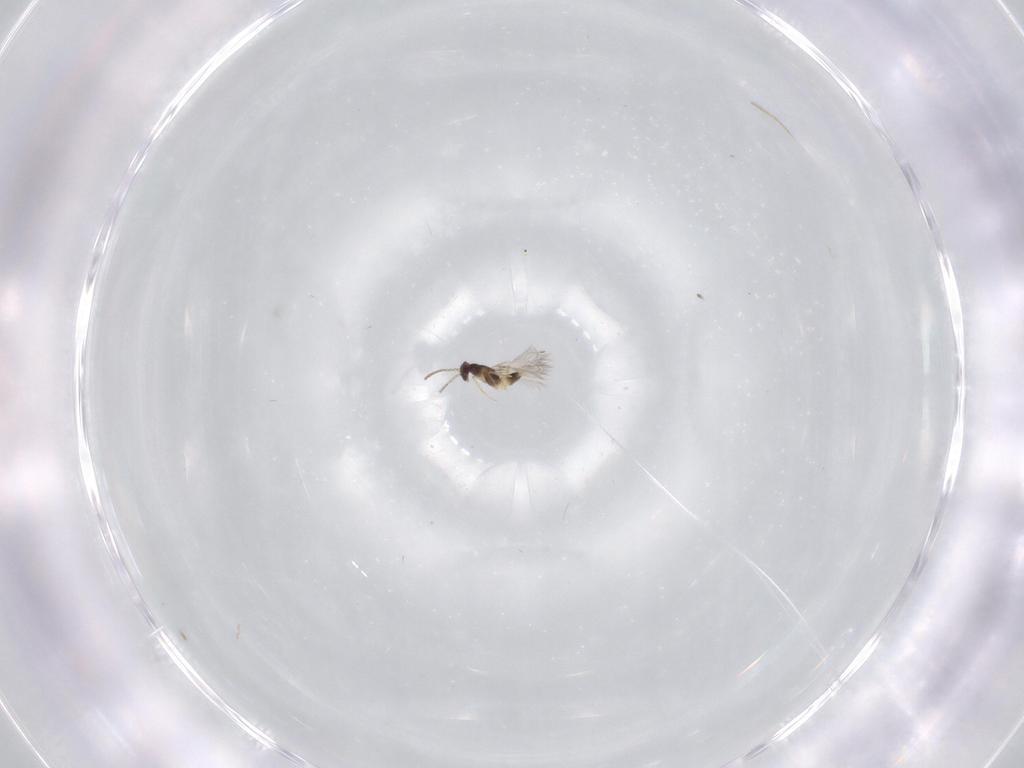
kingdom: Animalia
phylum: Arthropoda
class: Insecta
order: Hymenoptera
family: Mymaridae
